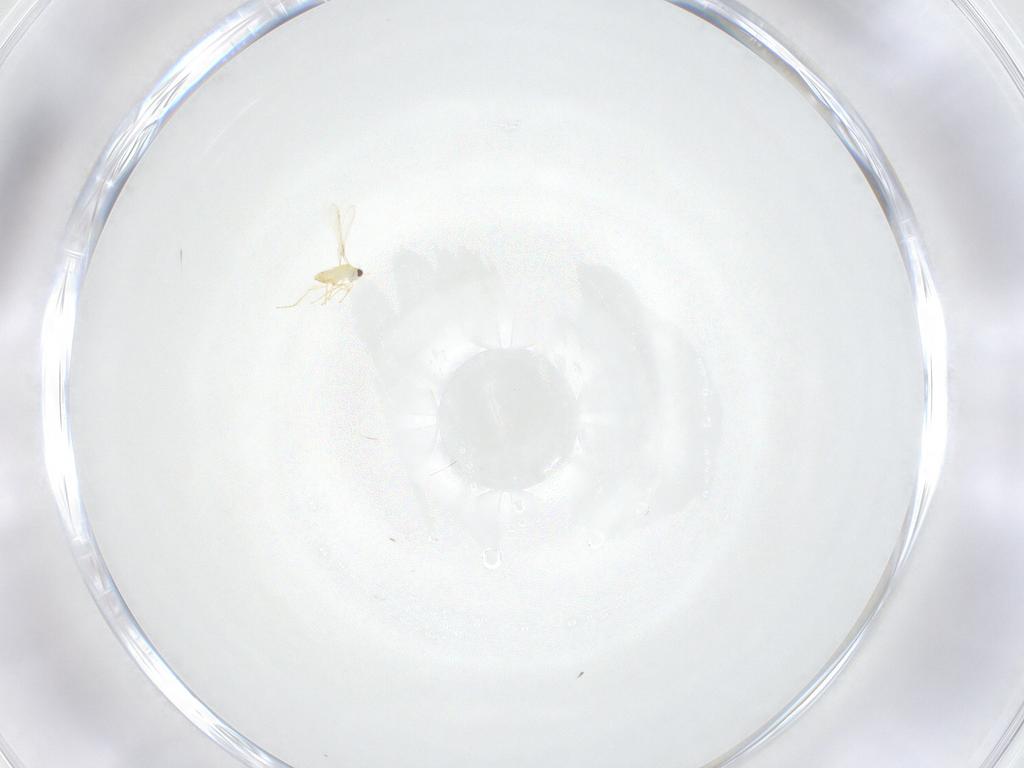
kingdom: Animalia
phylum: Arthropoda
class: Insecta
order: Hymenoptera
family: Mymaridae
